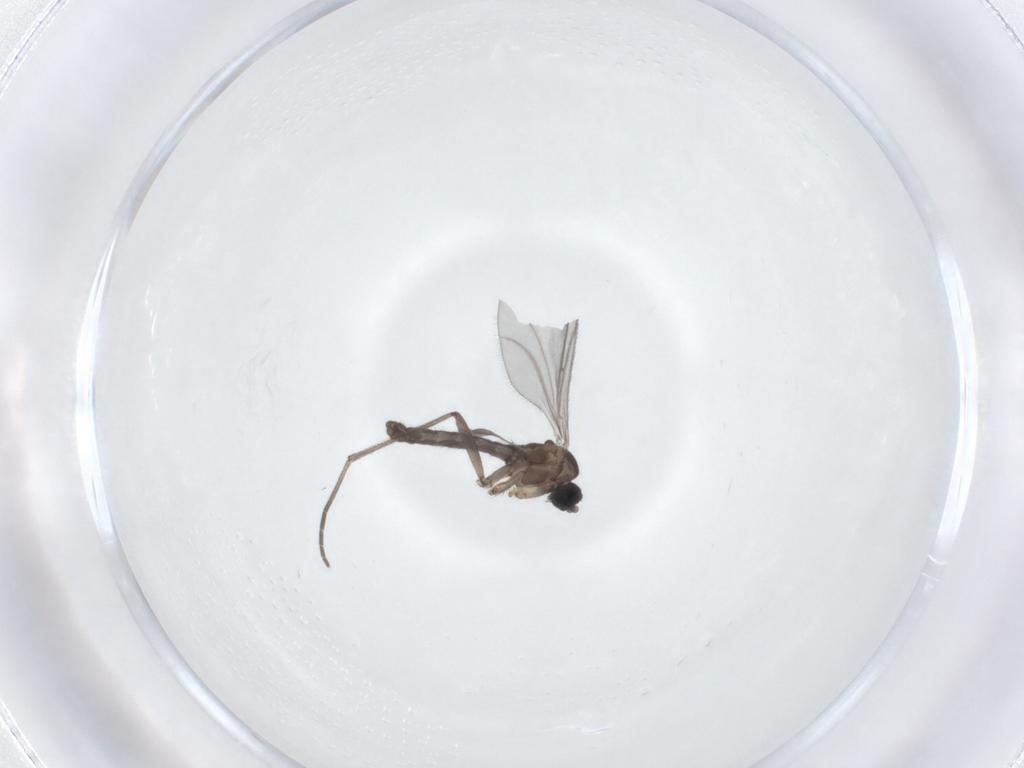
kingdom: Animalia
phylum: Arthropoda
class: Insecta
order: Diptera
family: Sciaridae
